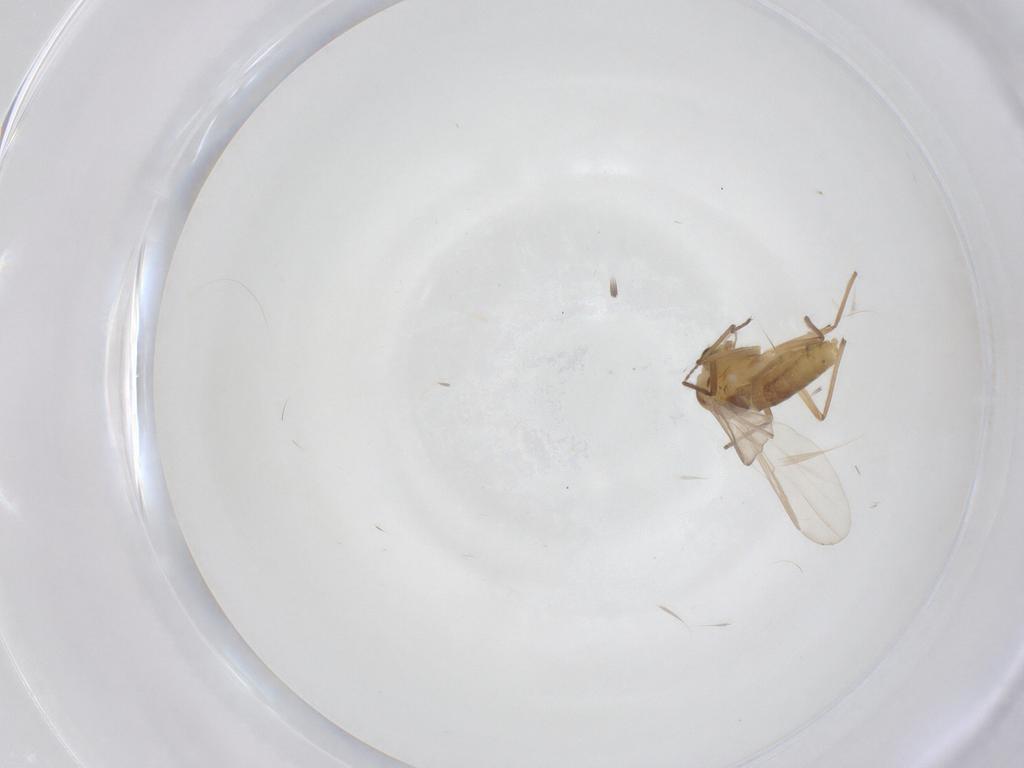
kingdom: Animalia
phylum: Arthropoda
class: Insecta
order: Diptera
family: Chironomidae
